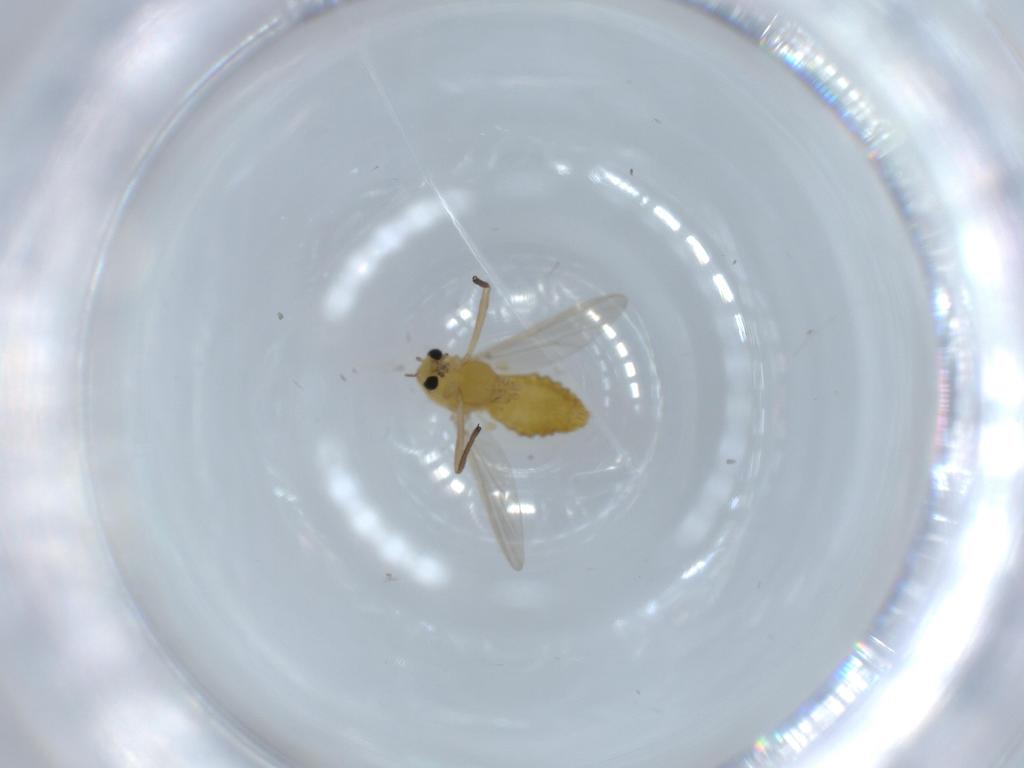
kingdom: Animalia
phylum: Arthropoda
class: Insecta
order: Diptera
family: Chironomidae
